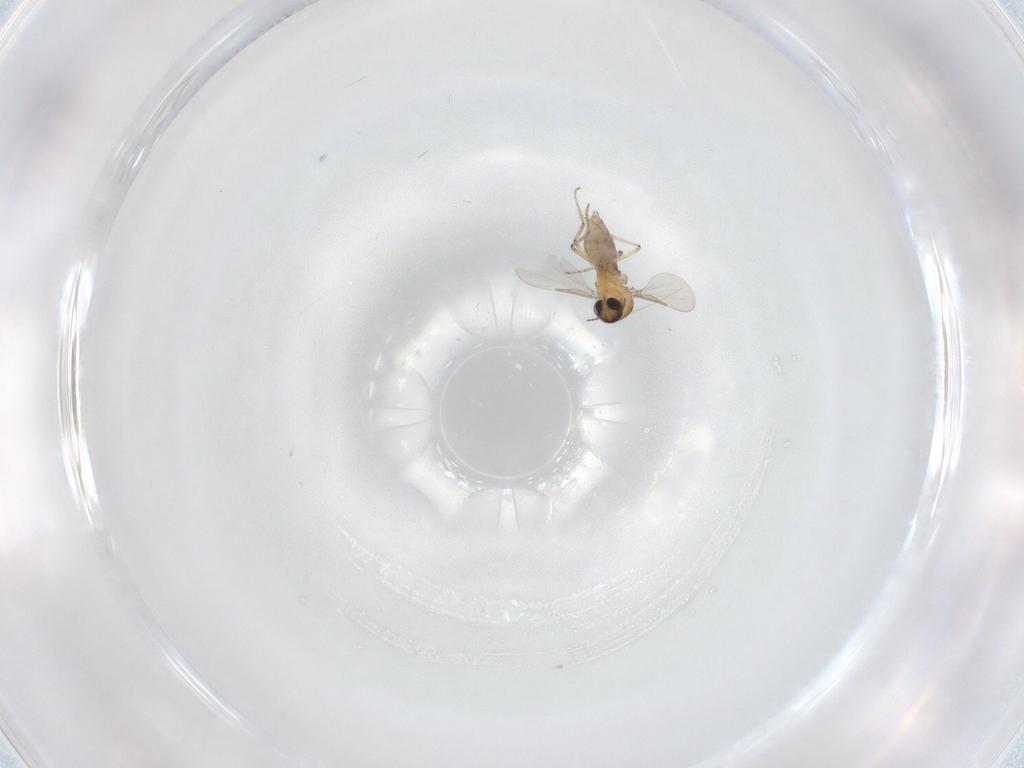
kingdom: Animalia
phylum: Arthropoda
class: Insecta
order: Diptera
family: Ceratopogonidae
